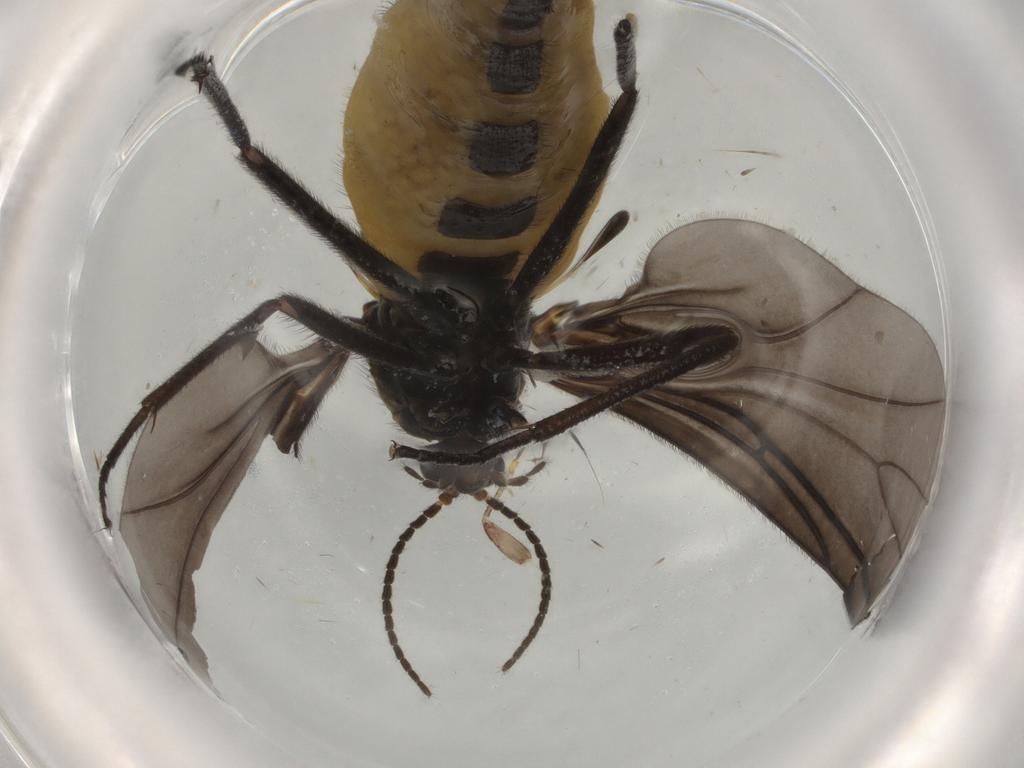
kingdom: Animalia
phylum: Arthropoda
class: Insecta
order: Diptera
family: Sciaridae
